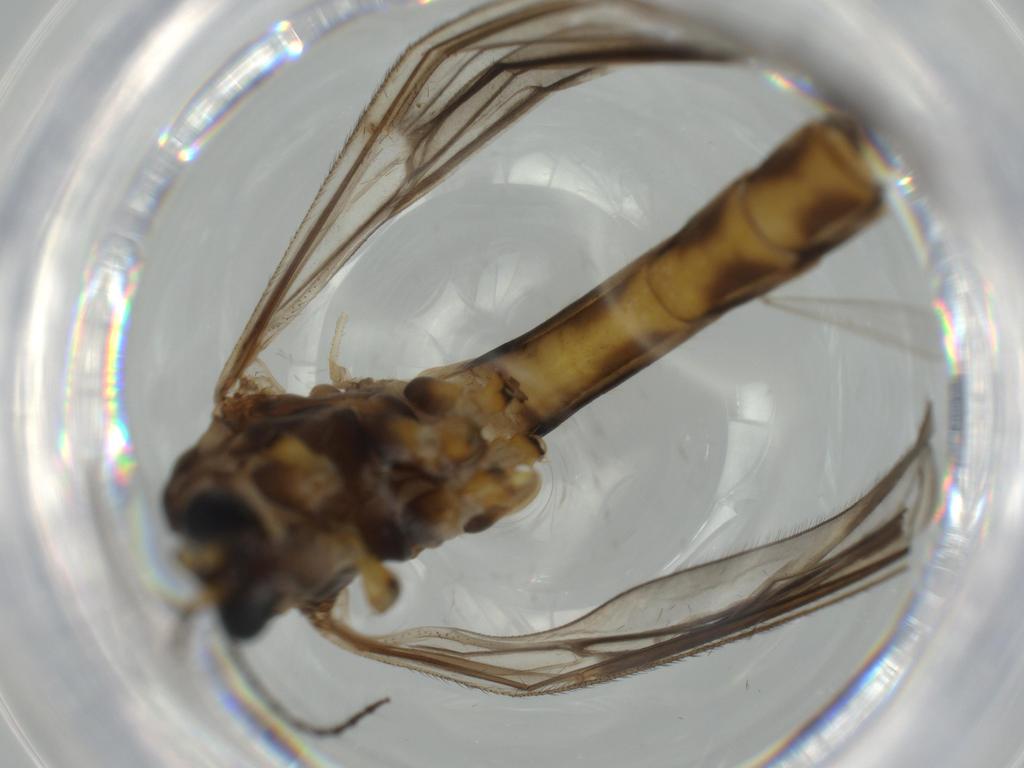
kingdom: Animalia
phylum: Arthropoda
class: Insecta
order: Diptera
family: Chironomidae
